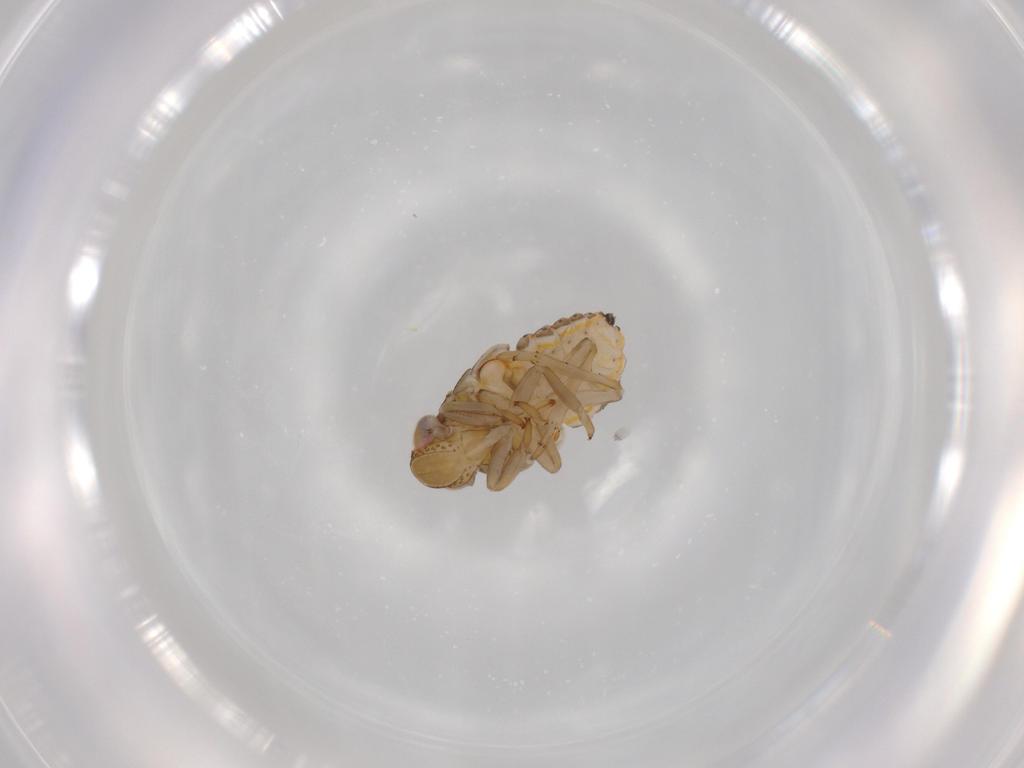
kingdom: Animalia
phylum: Arthropoda
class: Insecta
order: Hemiptera
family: Issidae
